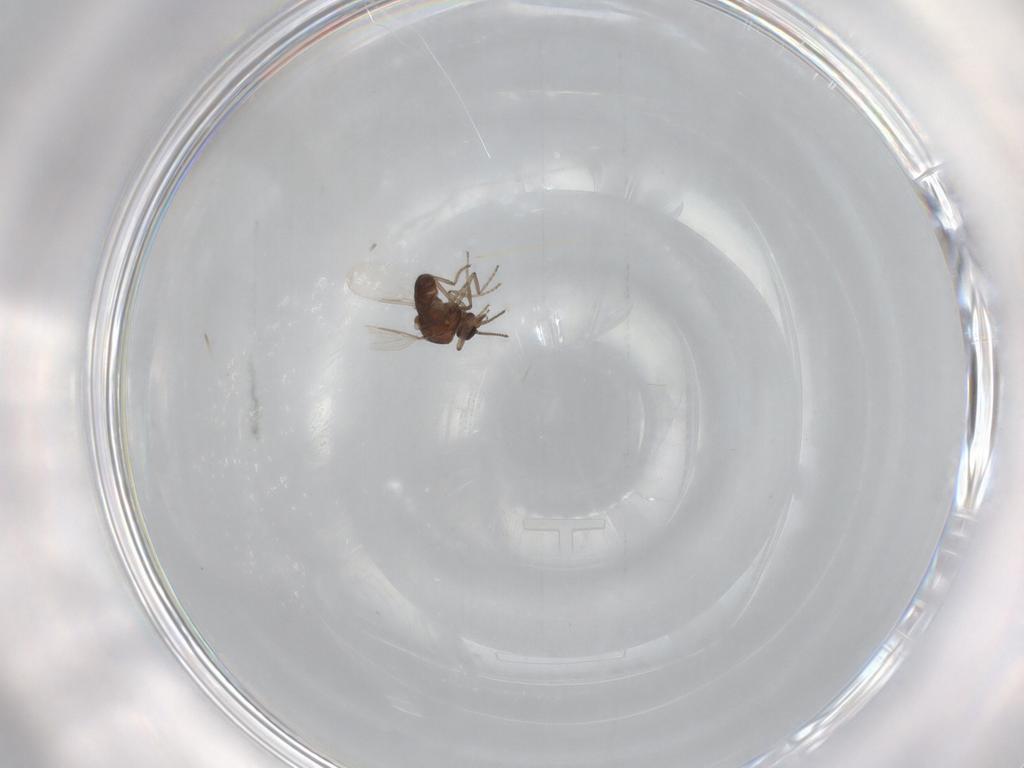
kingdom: Animalia
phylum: Arthropoda
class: Insecta
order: Diptera
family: Ceratopogonidae
